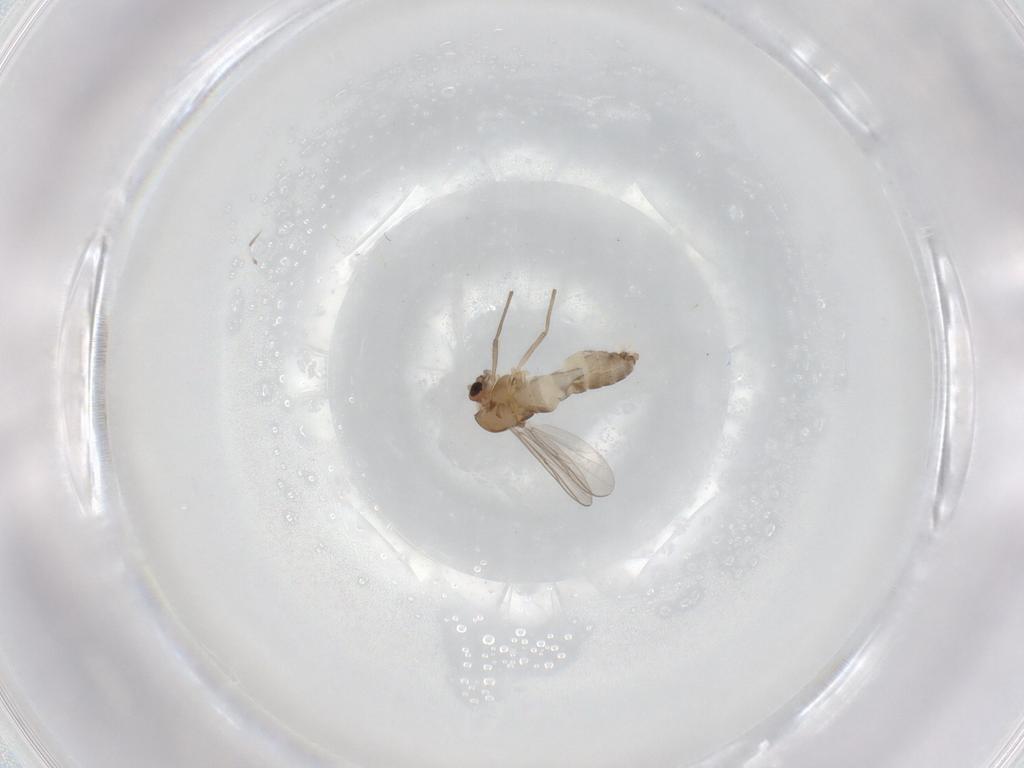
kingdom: Animalia
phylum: Arthropoda
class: Insecta
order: Diptera
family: Chironomidae
